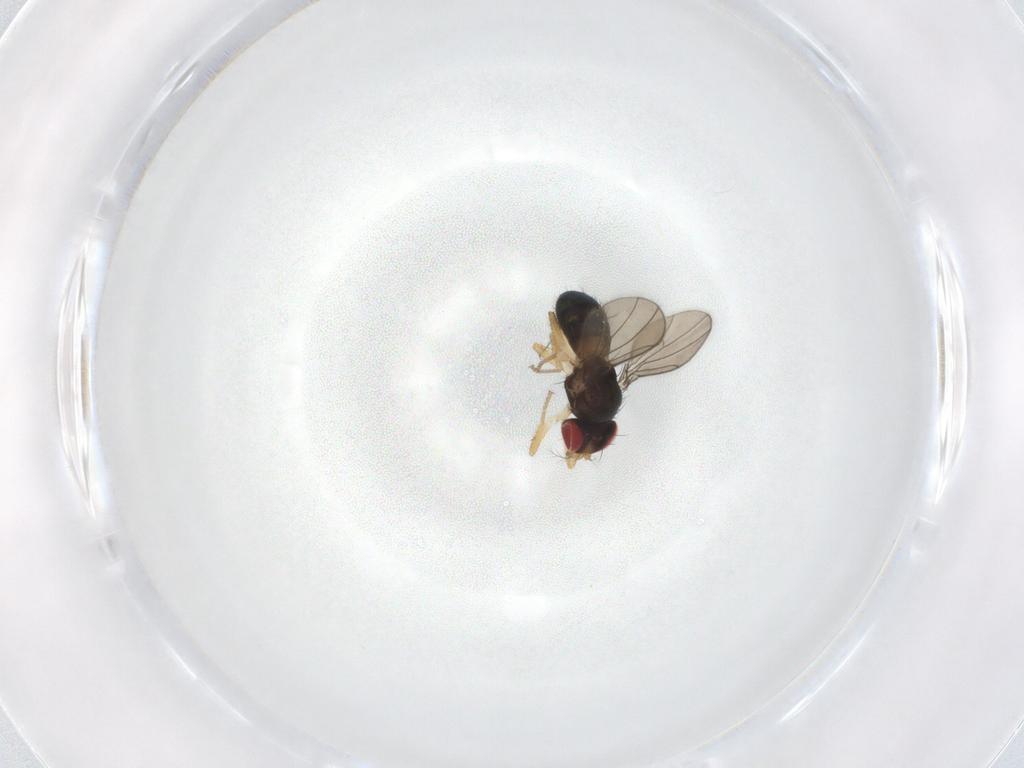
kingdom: Animalia
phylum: Arthropoda
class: Insecta
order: Diptera
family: Drosophilidae
